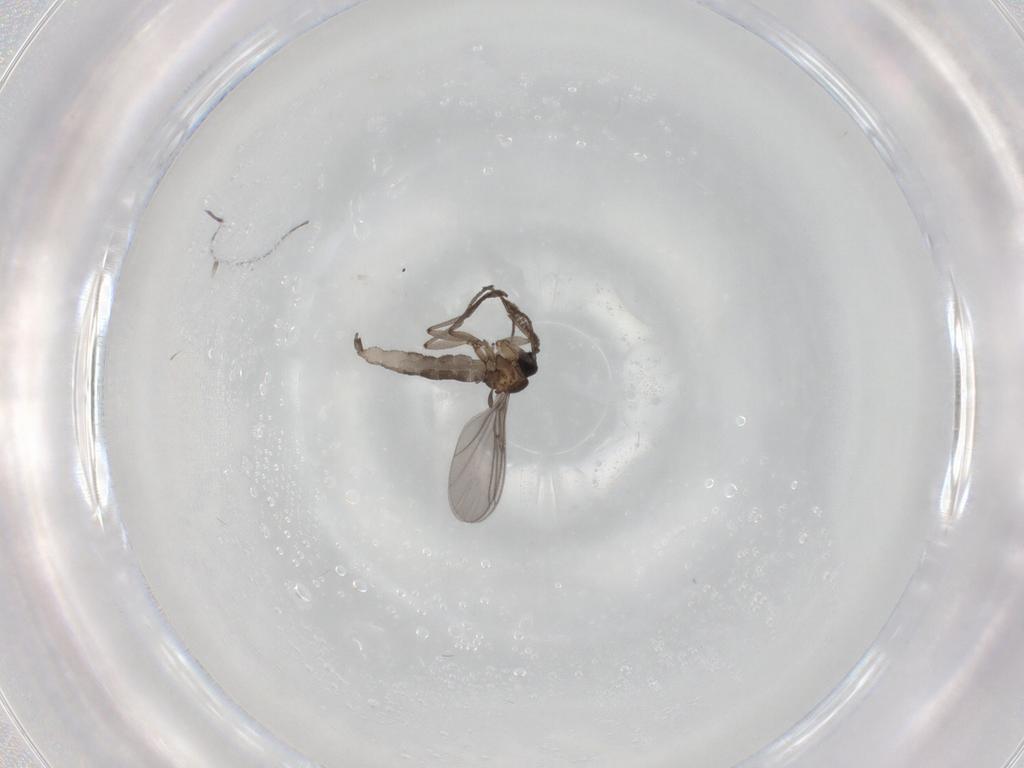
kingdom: Animalia
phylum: Arthropoda
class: Insecta
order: Diptera
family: Sciaridae
